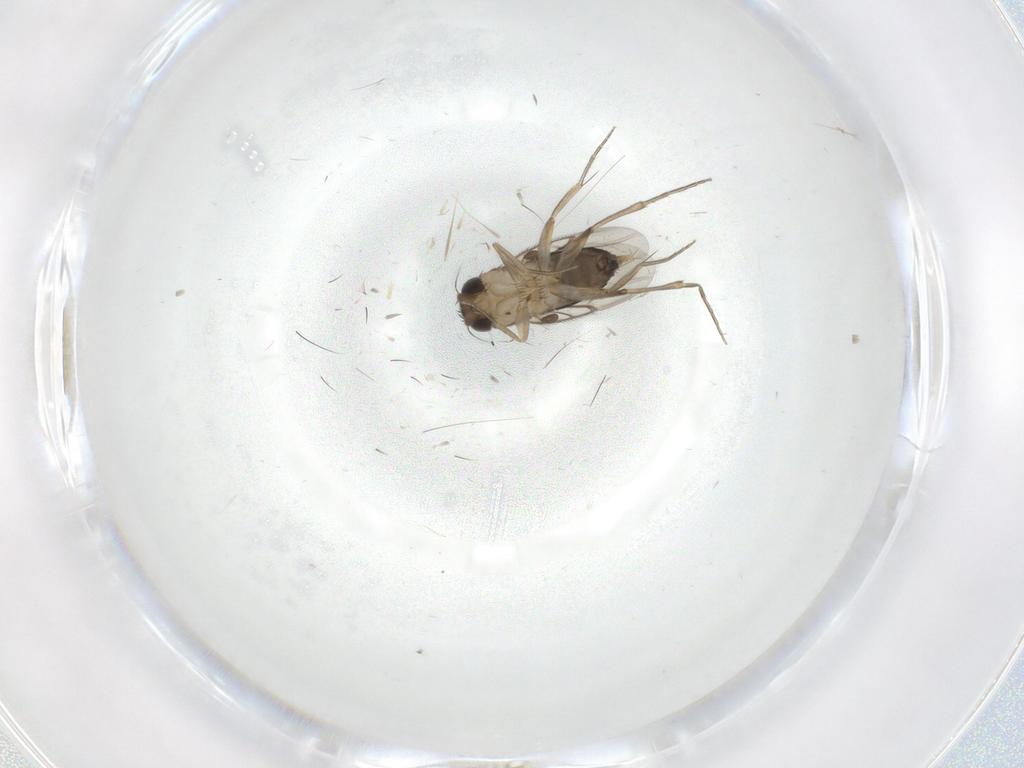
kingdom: Animalia
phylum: Arthropoda
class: Insecta
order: Diptera
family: Phoridae
